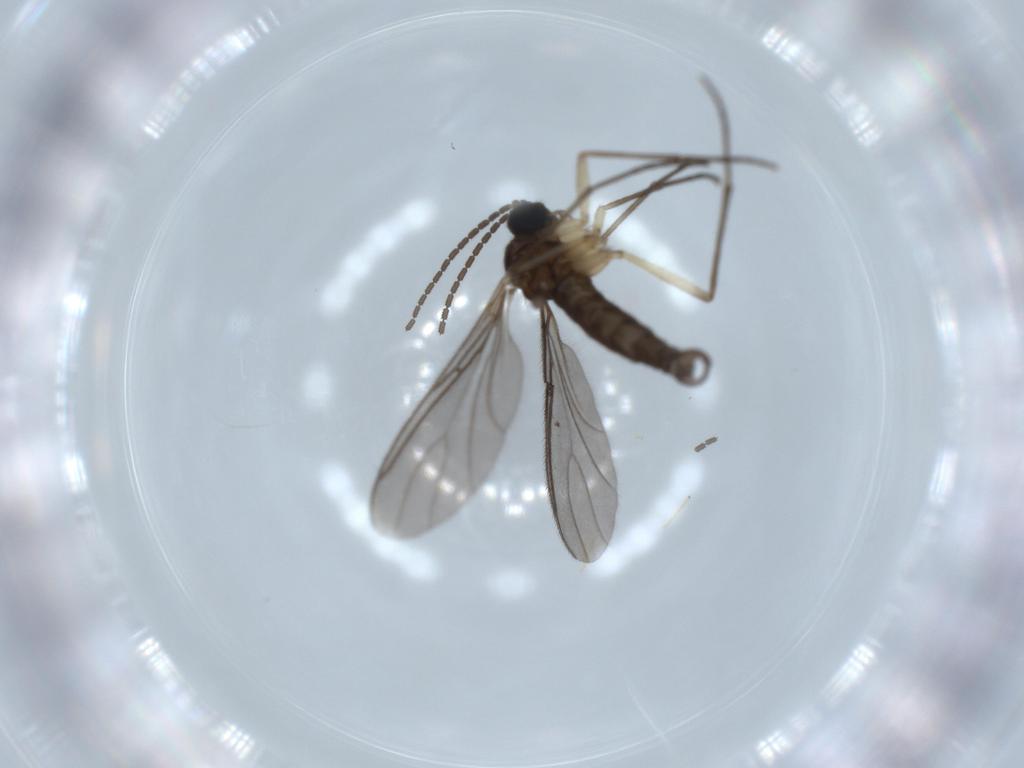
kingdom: Animalia
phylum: Arthropoda
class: Insecta
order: Diptera
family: Sciaridae
